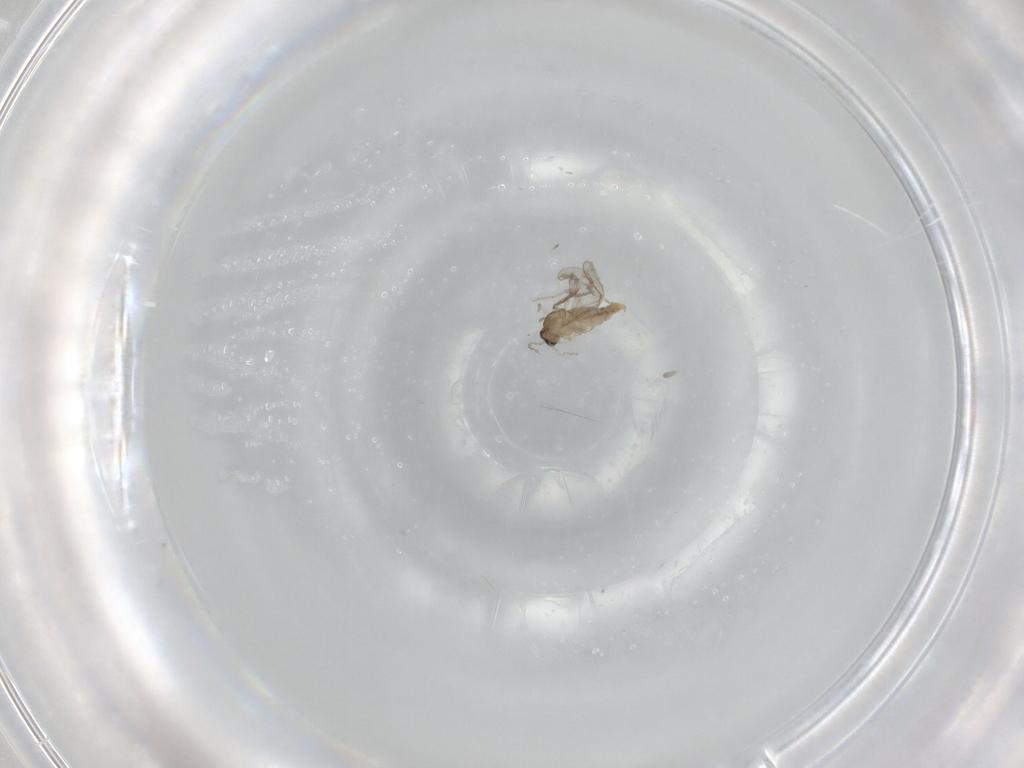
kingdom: Animalia
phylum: Arthropoda
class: Insecta
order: Diptera
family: Cecidomyiidae
